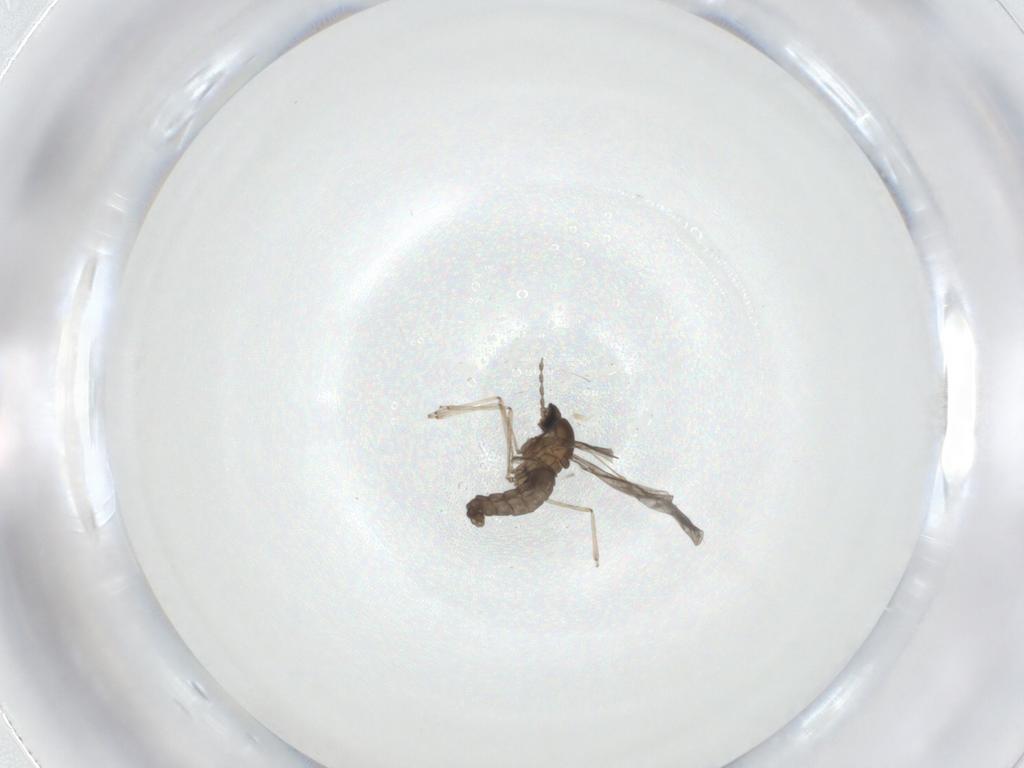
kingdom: Animalia
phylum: Arthropoda
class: Insecta
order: Diptera
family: Cecidomyiidae
